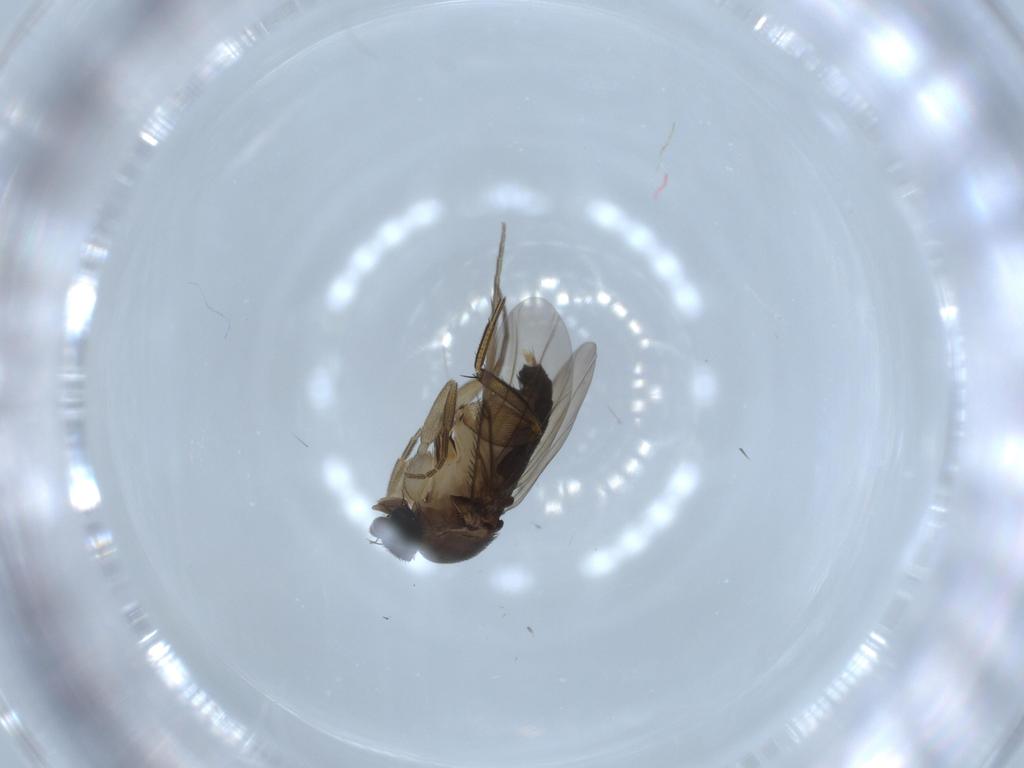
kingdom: Animalia
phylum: Arthropoda
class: Insecta
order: Diptera
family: Phoridae
